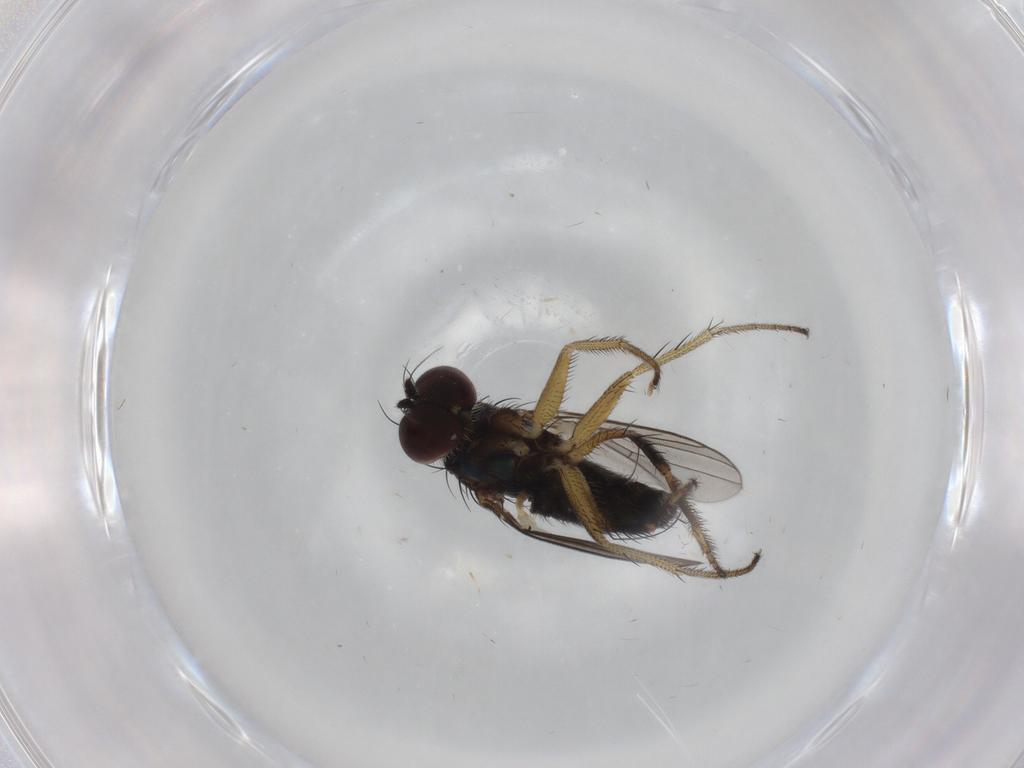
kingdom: Animalia
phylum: Arthropoda
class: Insecta
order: Diptera
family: Dolichopodidae
